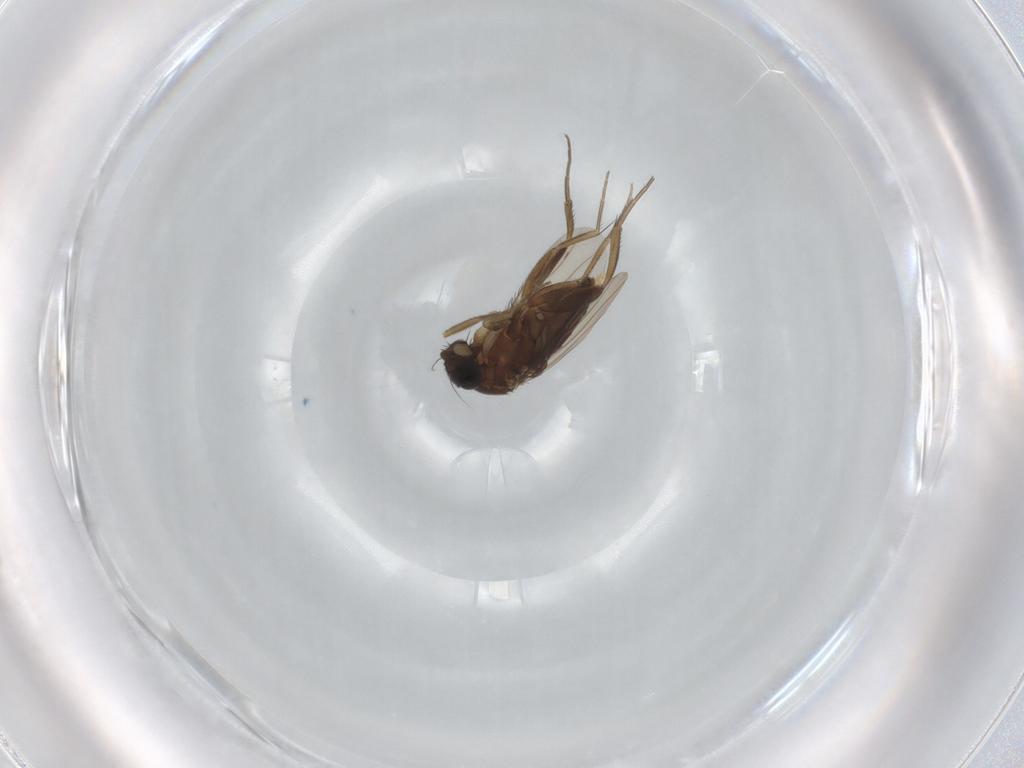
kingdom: Animalia
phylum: Arthropoda
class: Insecta
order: Diptera
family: Phoridae
